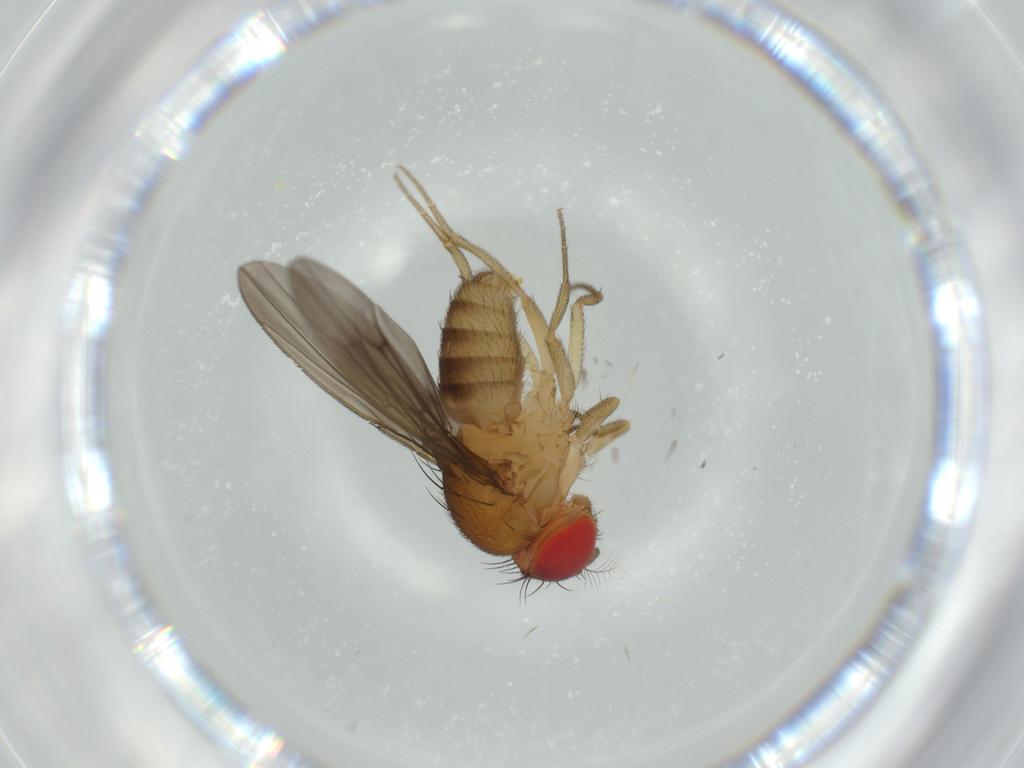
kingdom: Animalia
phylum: Arthropoda
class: Insecta
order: Diptera
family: Drosophilidae
